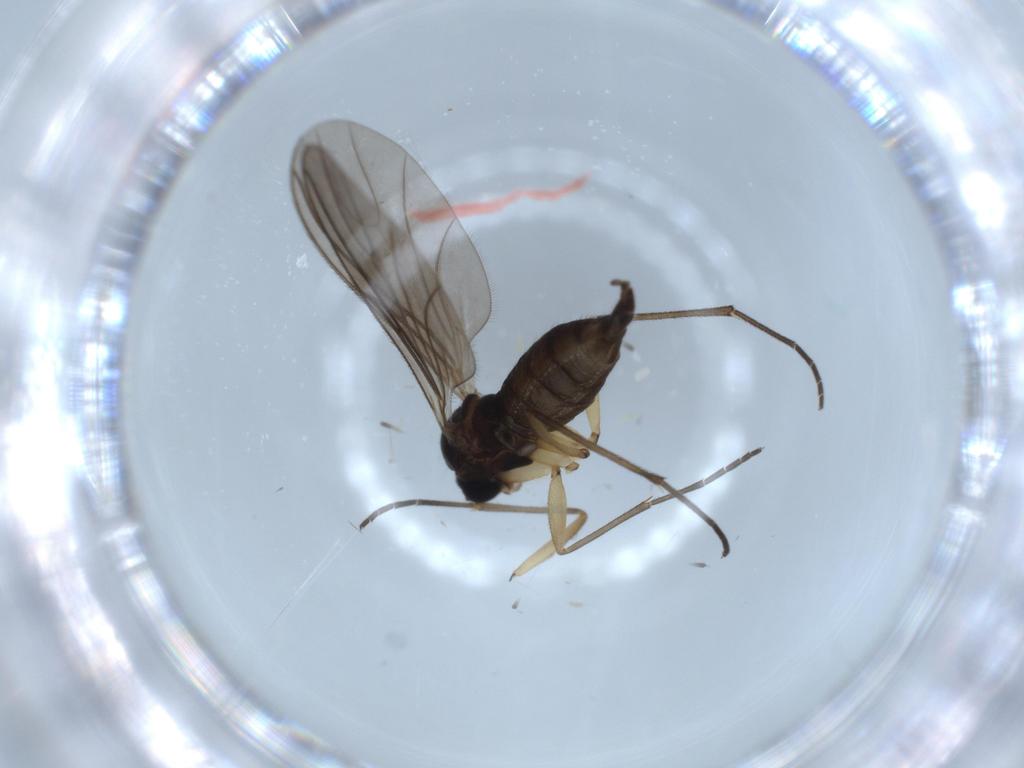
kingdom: Animalia
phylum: Arthropoda
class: Insecta
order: Diptera
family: Sciaridae
